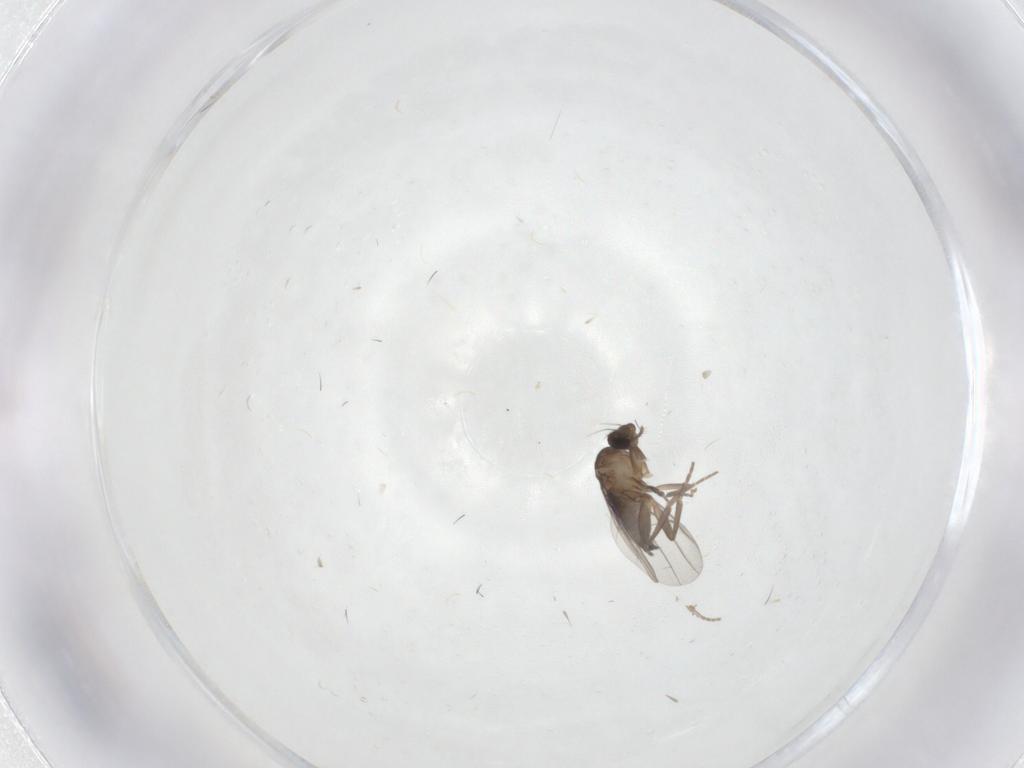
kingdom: Animalia
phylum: Arthropoda
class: Insecta
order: Diptera
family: Phoridae
